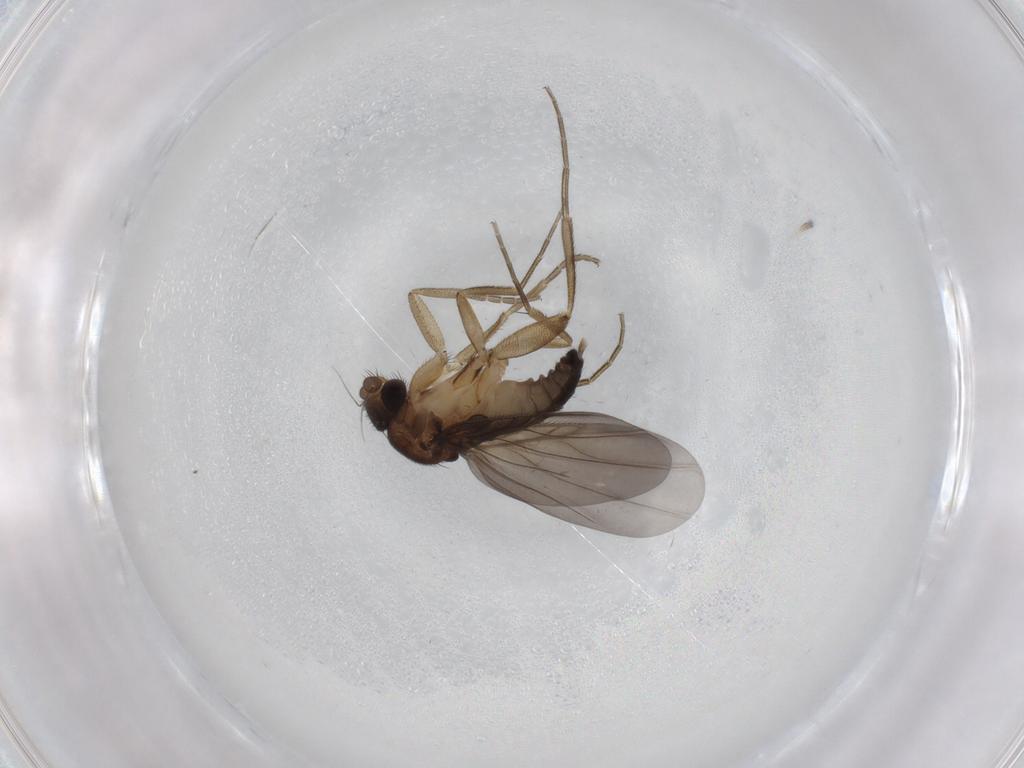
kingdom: Animalia
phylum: Arthropoda
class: Insecta
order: Diptera
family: Phoridae
